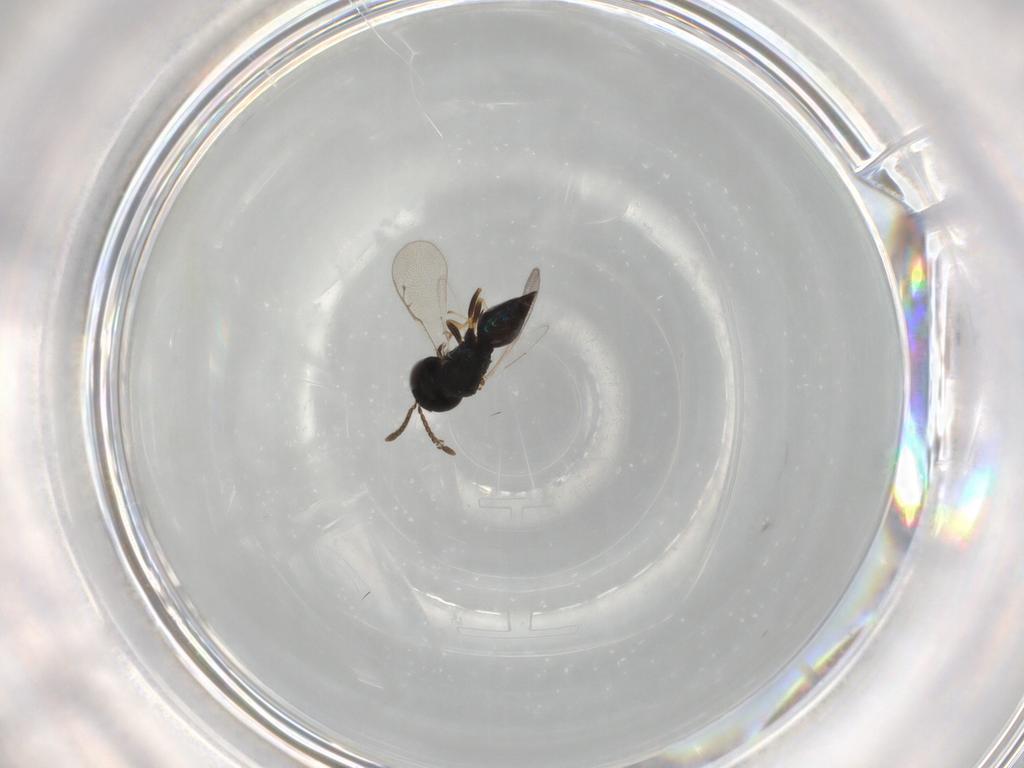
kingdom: Animalia
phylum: Arthropoda
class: Insecta
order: Hymenoptera
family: Pteromalidae
